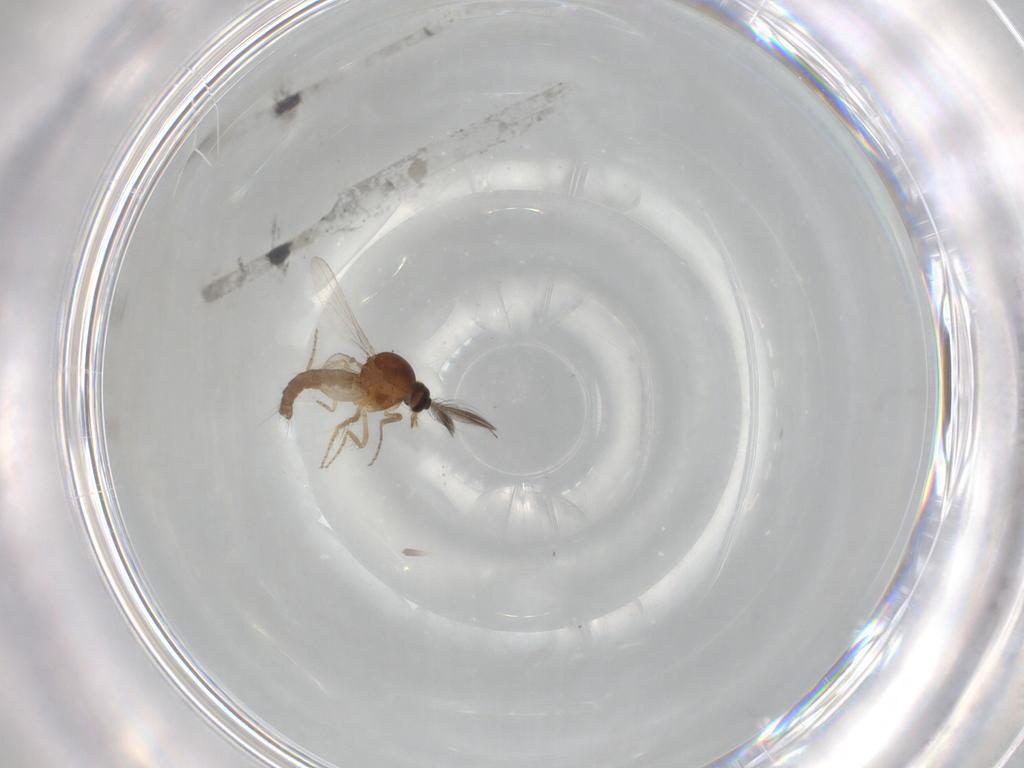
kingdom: Animalia
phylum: Arthropoda
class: Insecta
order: Diptera
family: Ceratopogonidae
